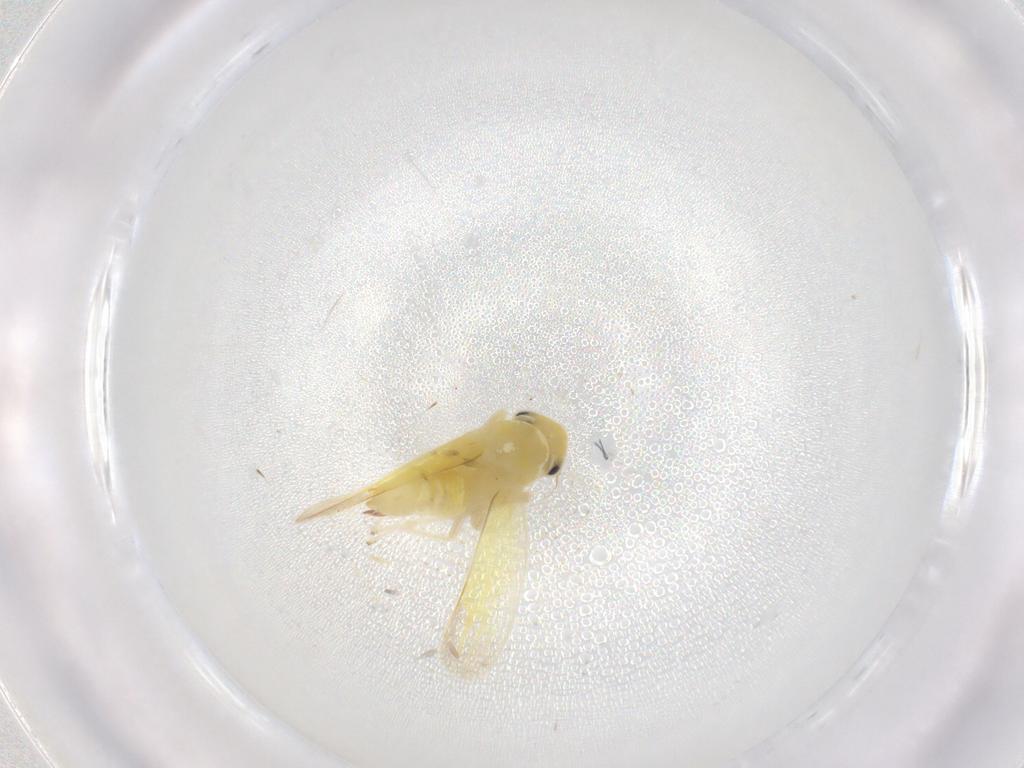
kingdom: Animalia
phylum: Arthropoda
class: Insecta
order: Hemiptera
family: Cicadellidae
